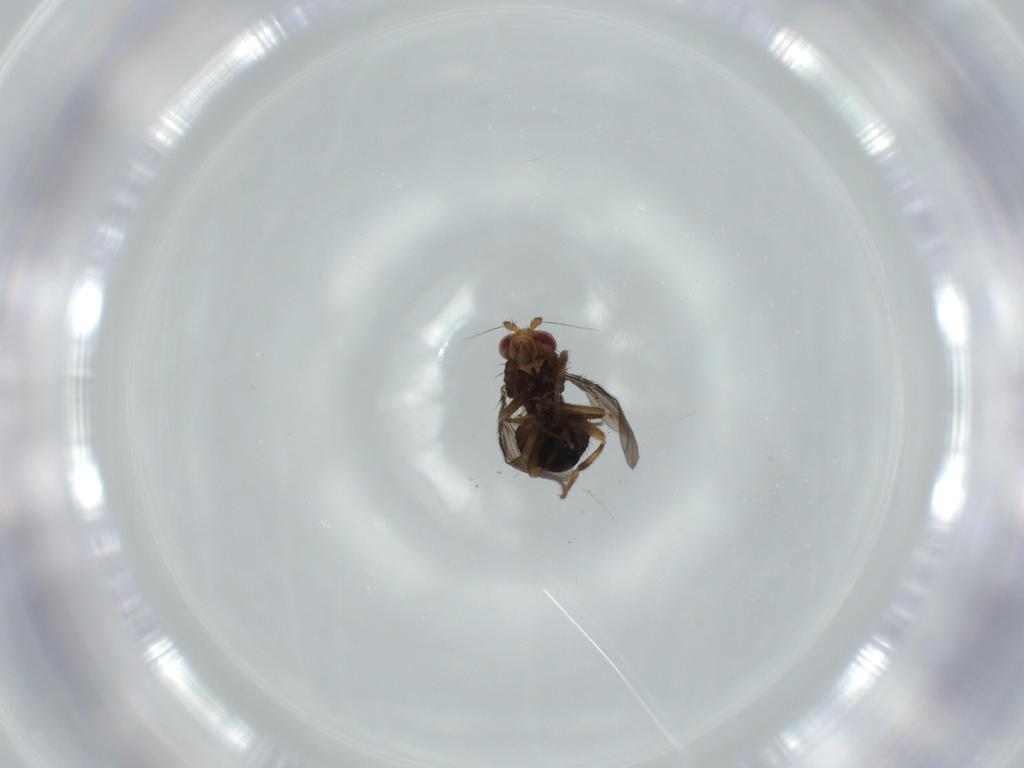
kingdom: Animalia
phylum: Arthropoda
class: Insecta
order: Diptera
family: Sphaeroceridae
